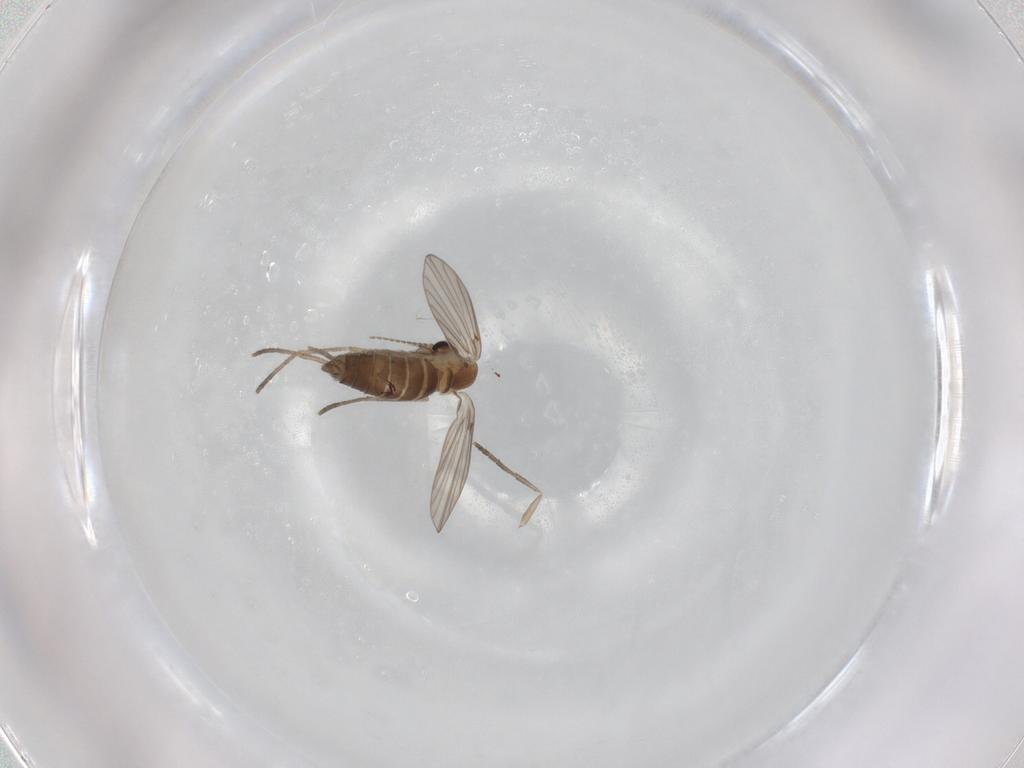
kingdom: Animalia
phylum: Arthropoda
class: Insecta
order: Diptera
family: Psychodidae
